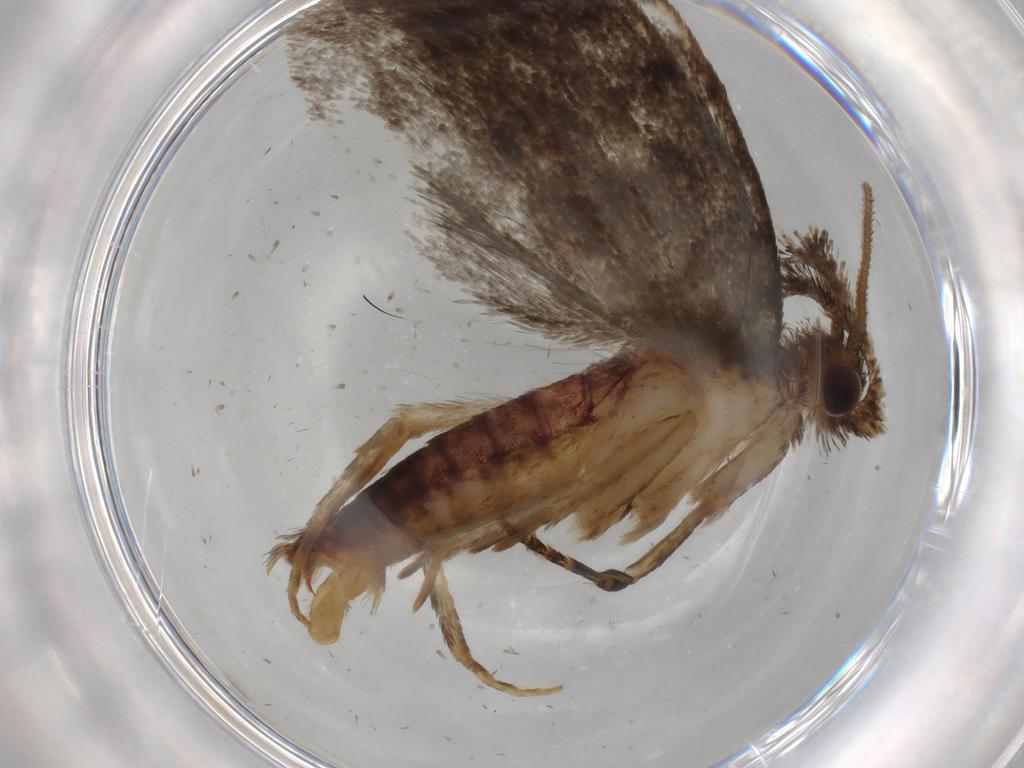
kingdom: Animalia
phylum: Arthropoda
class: Insecta
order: Lepidoptera
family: Tineidae
